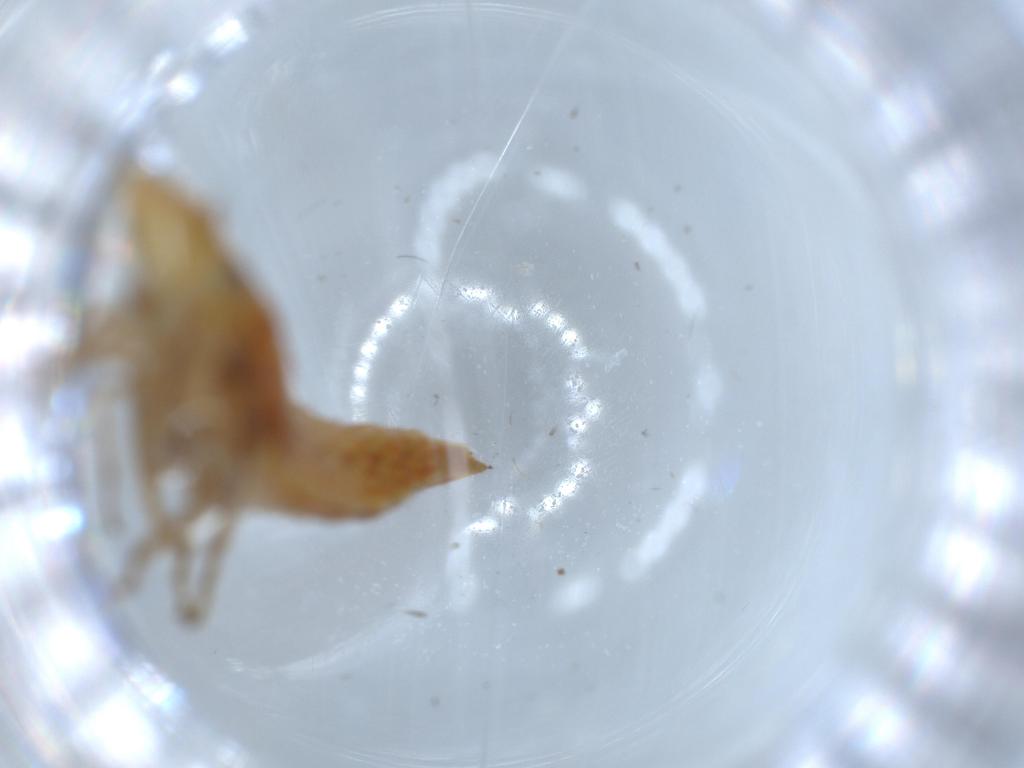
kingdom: Animalia
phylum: Arthropoda
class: Insecta
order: Hemiptera
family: Cicadellidae
